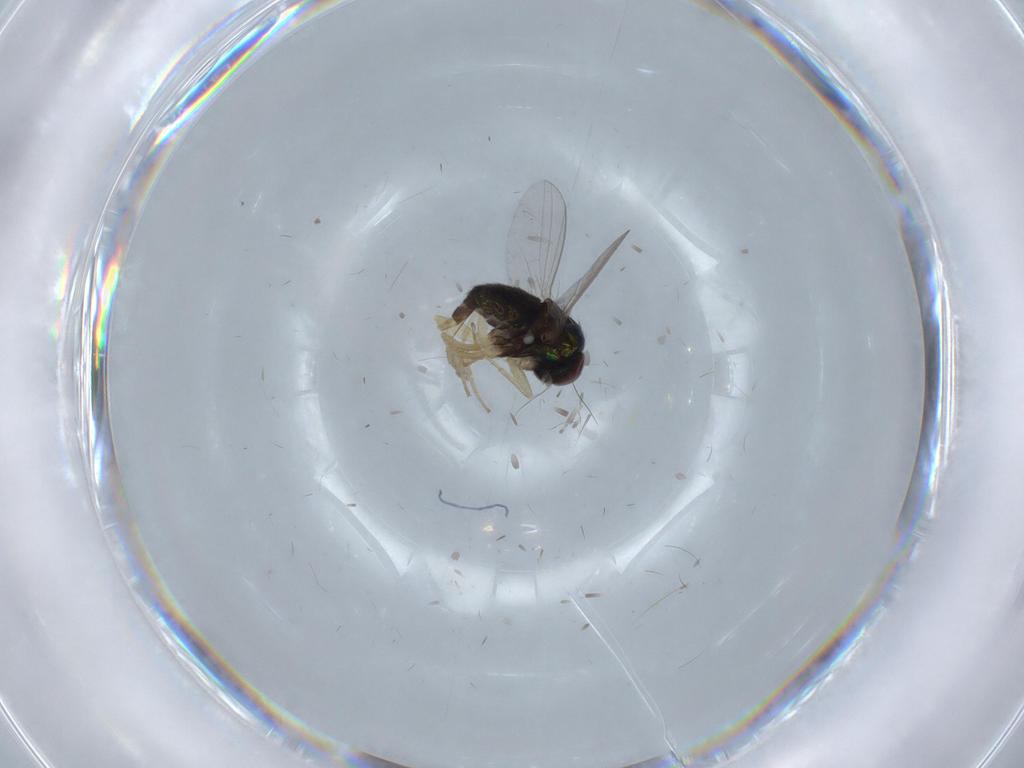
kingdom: Animalia
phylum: Arthropoda
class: Insecta
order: Diptera
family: Dolichopodidae
